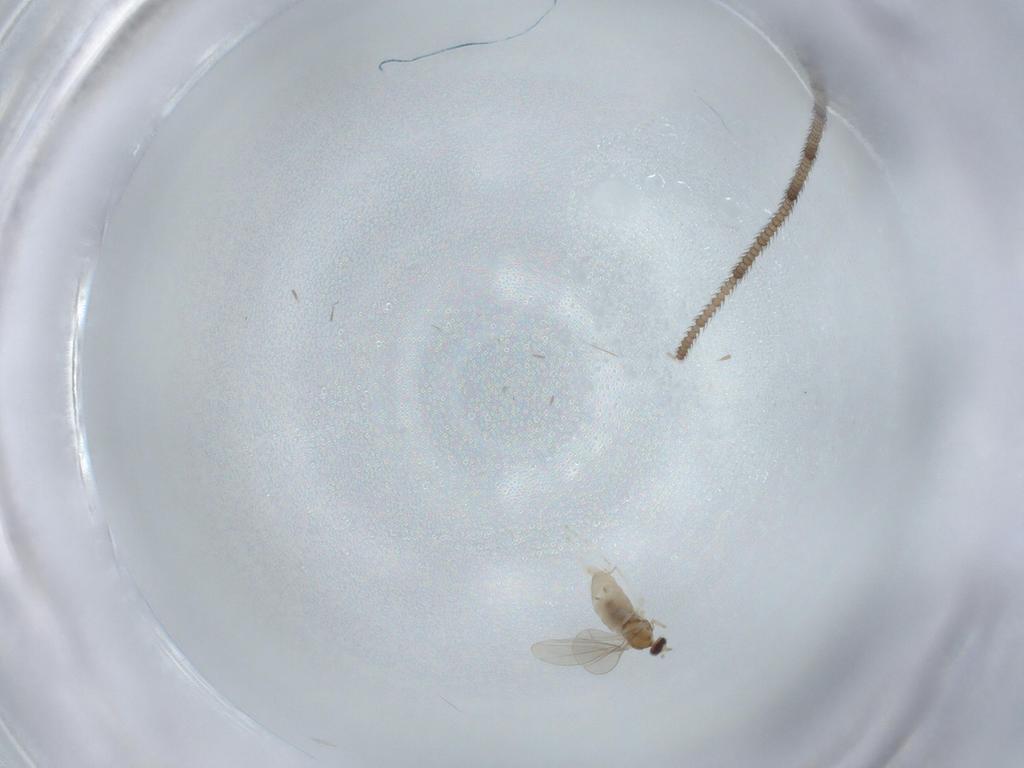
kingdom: Animalia
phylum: Arthropoda
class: Insecta
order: Diptera
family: Cecidomyiidae
